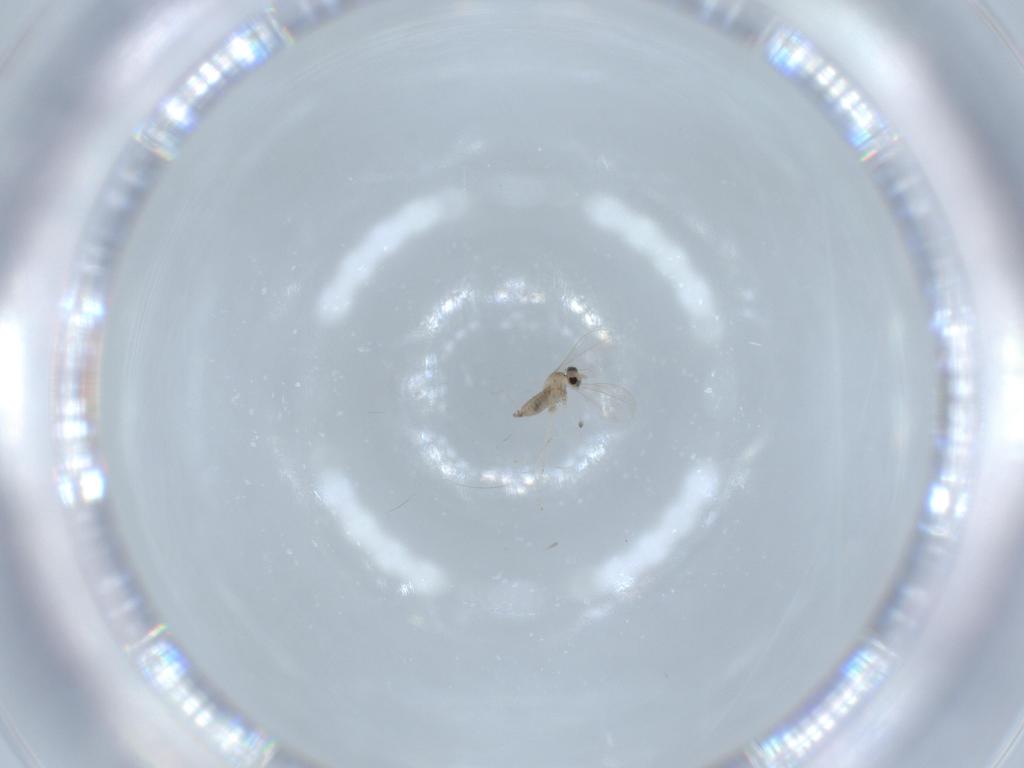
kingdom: Animalia
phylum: Arthropoda
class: Insecta
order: Diptera
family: Cecidomyiidae
